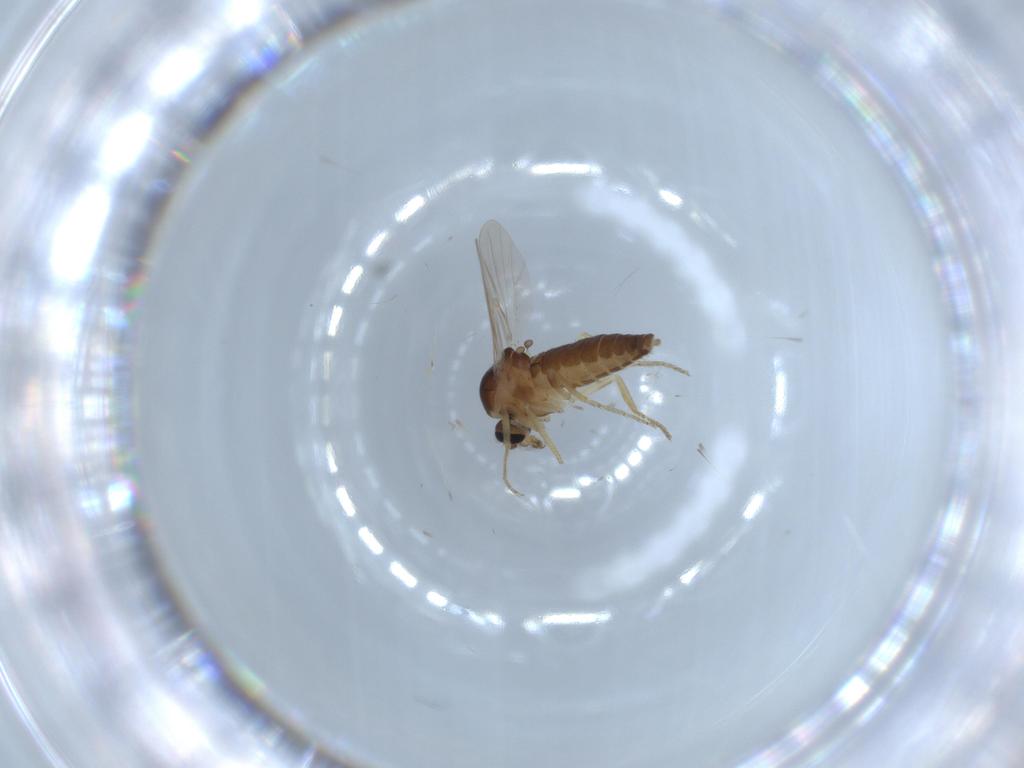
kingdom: Animalia
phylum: Arthropoda
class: Insecta
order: Diptera
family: Ceratopogonidae
